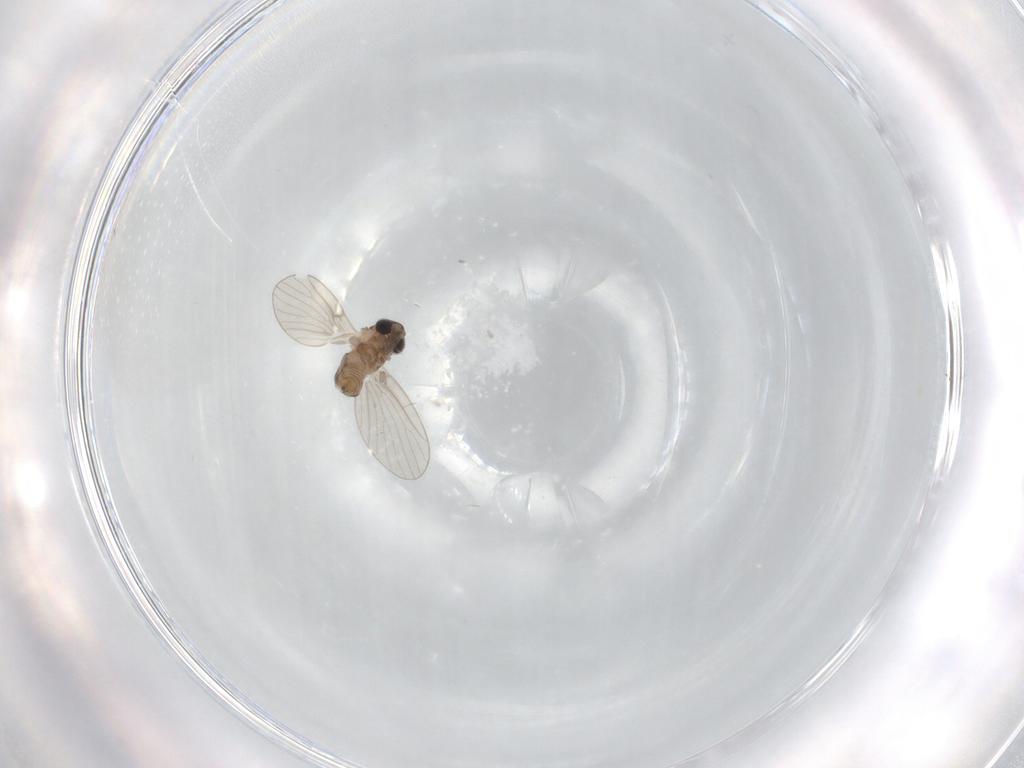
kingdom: Animalia
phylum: Arthropoda
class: Insecta
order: Diptera
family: Psychodidae
